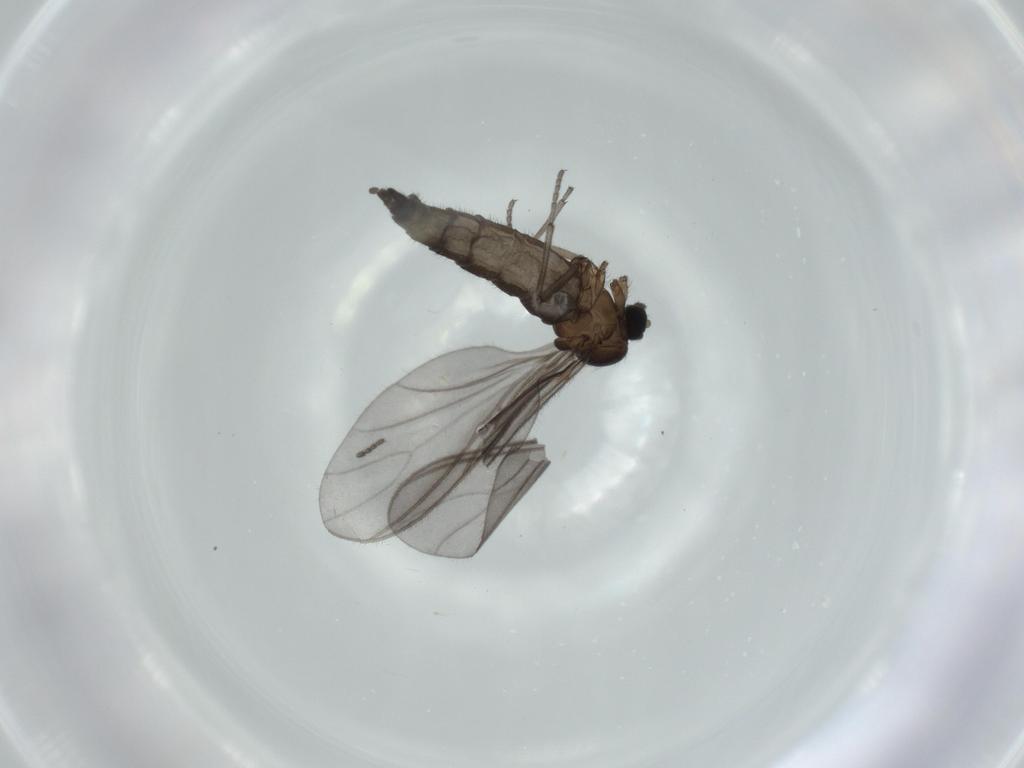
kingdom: Animalia
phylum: Arthropoda
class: Insecta
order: Diptera
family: Sciaridae
